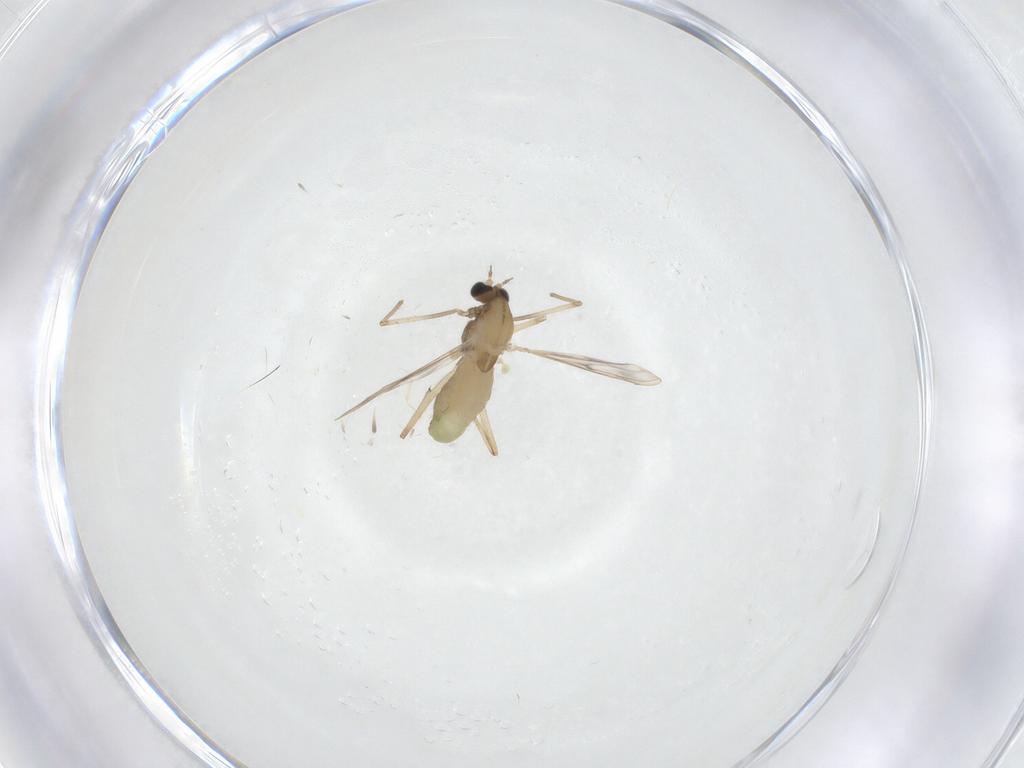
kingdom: Animalia
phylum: Arthropoda
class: Insecta
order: Diptera
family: Chironomidae
